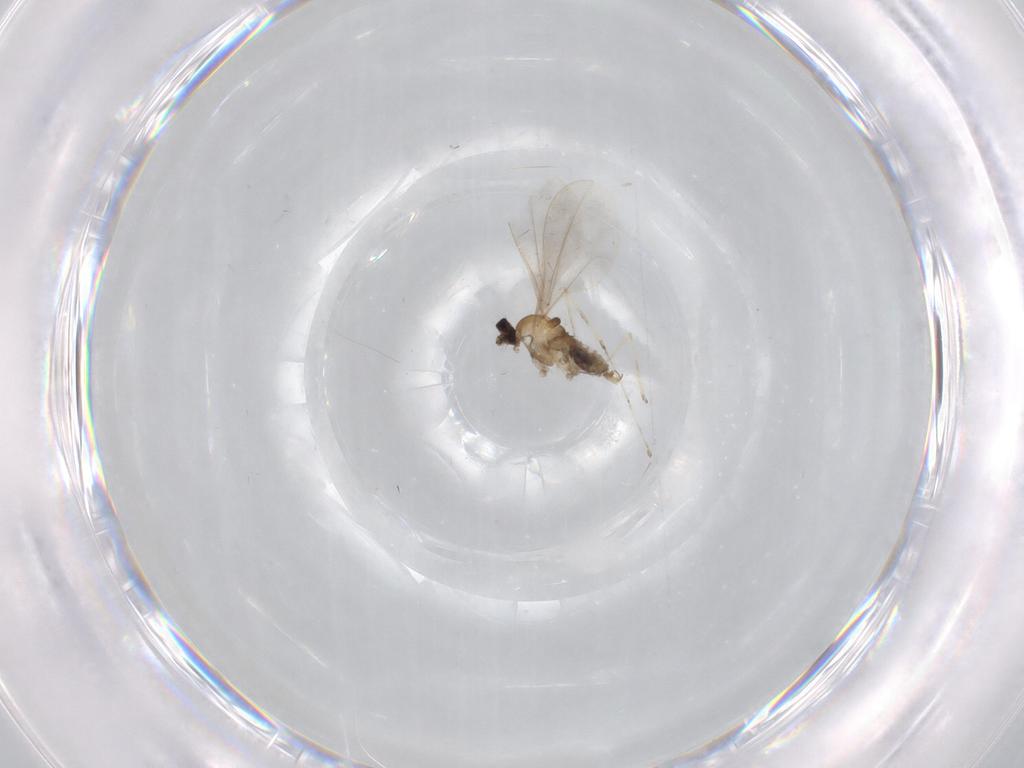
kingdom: Animalia
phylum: Arthropoda
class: Insecta
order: Diptera
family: Cecidomyiidae
